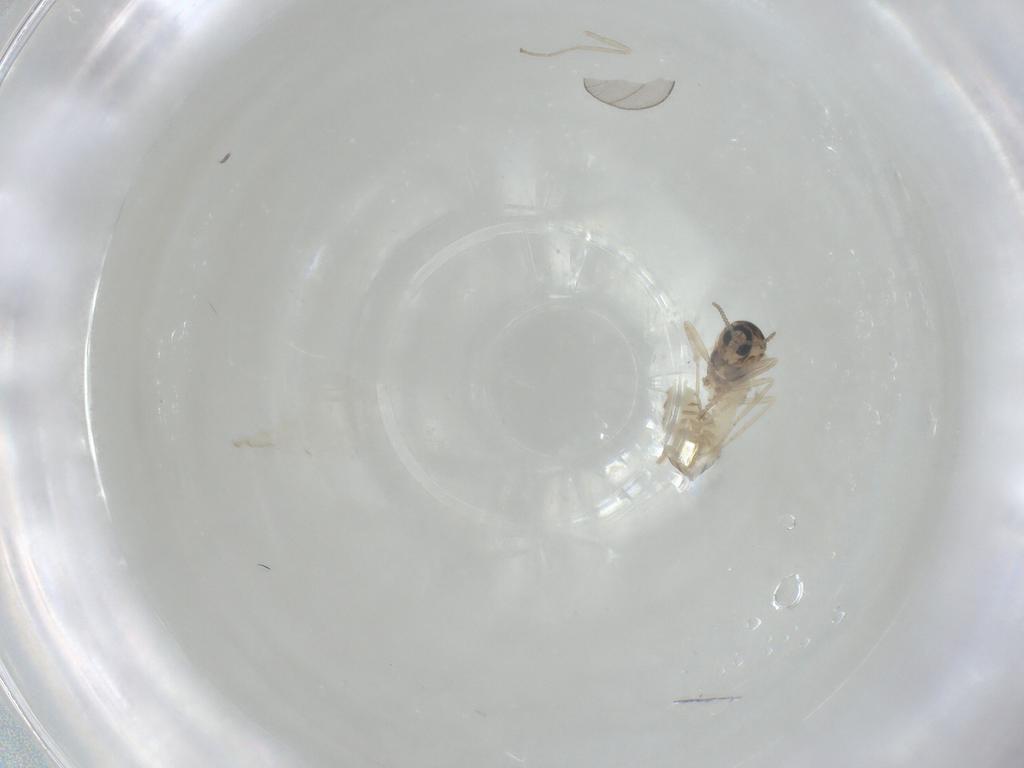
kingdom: Animalia
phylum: Arthropoda
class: Insecta
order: Diptera
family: Cecidomyiidae
